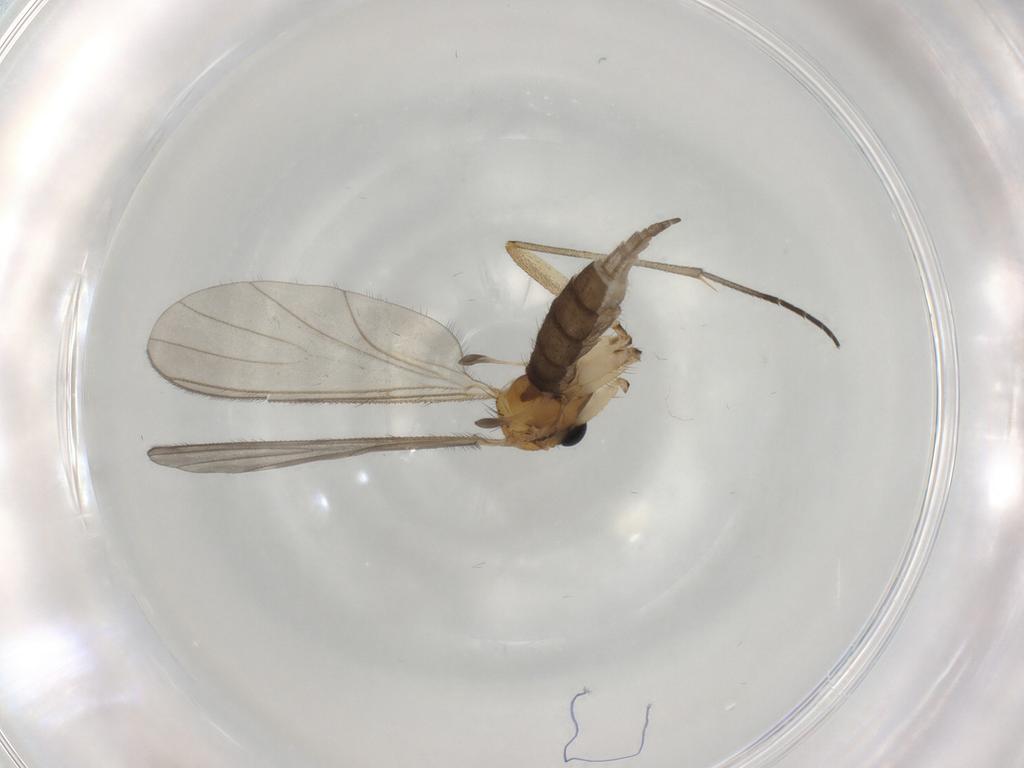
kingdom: Animalia
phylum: Arthropoda
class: Insecta
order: Diptera
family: Sciaridae
